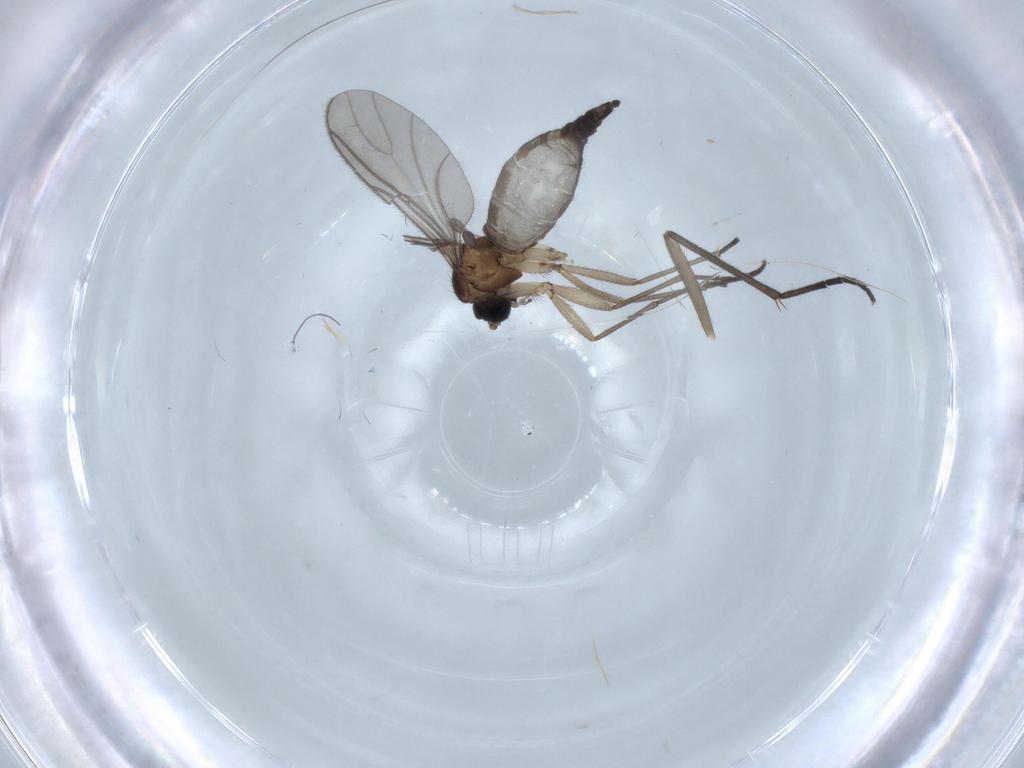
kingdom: Animalia
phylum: Arthropoda
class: Insecta
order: Diptera
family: Sciaridae
